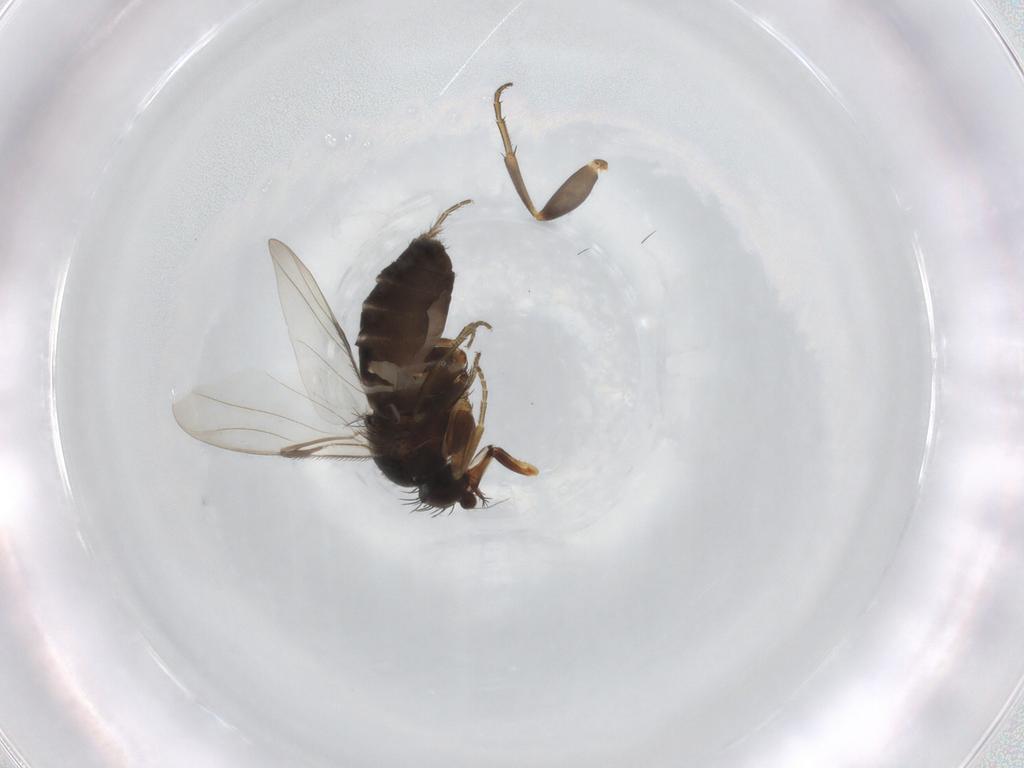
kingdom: Animalia
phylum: Arthropoda
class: Insecta
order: Diptera
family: Phoridae
